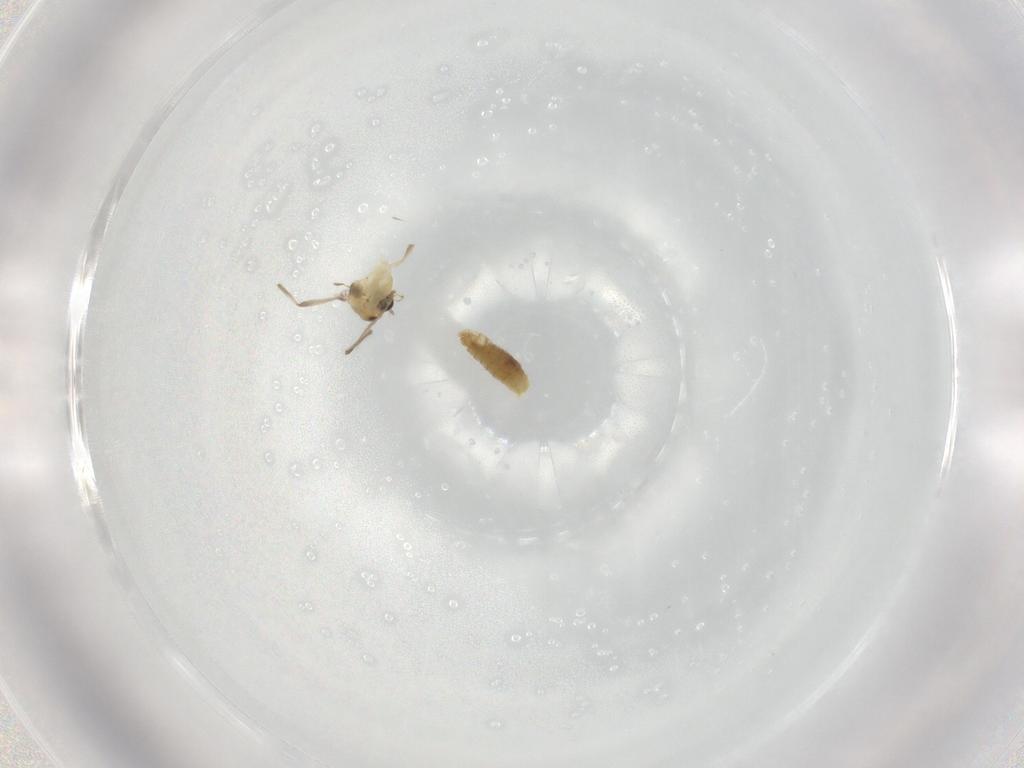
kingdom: Animalia
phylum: Arthropoda
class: Insecta
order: Diptera
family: Chironomidae
